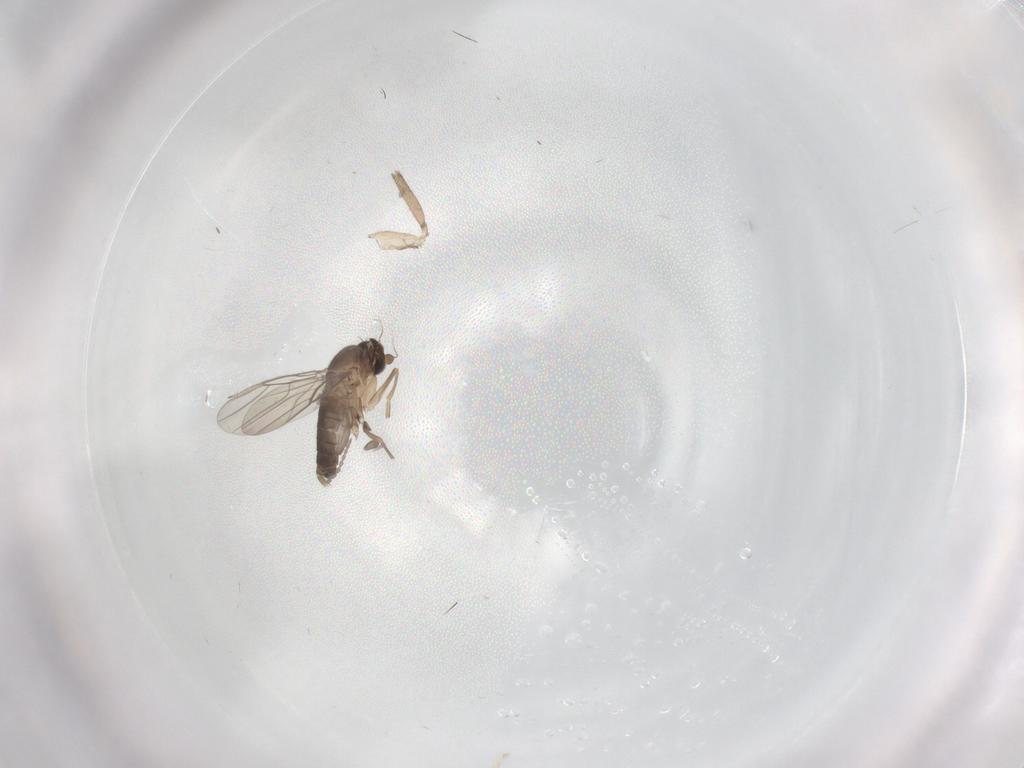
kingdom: Animalia
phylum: Arthropoda
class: Insecta
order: Diptera
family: Phoridae
